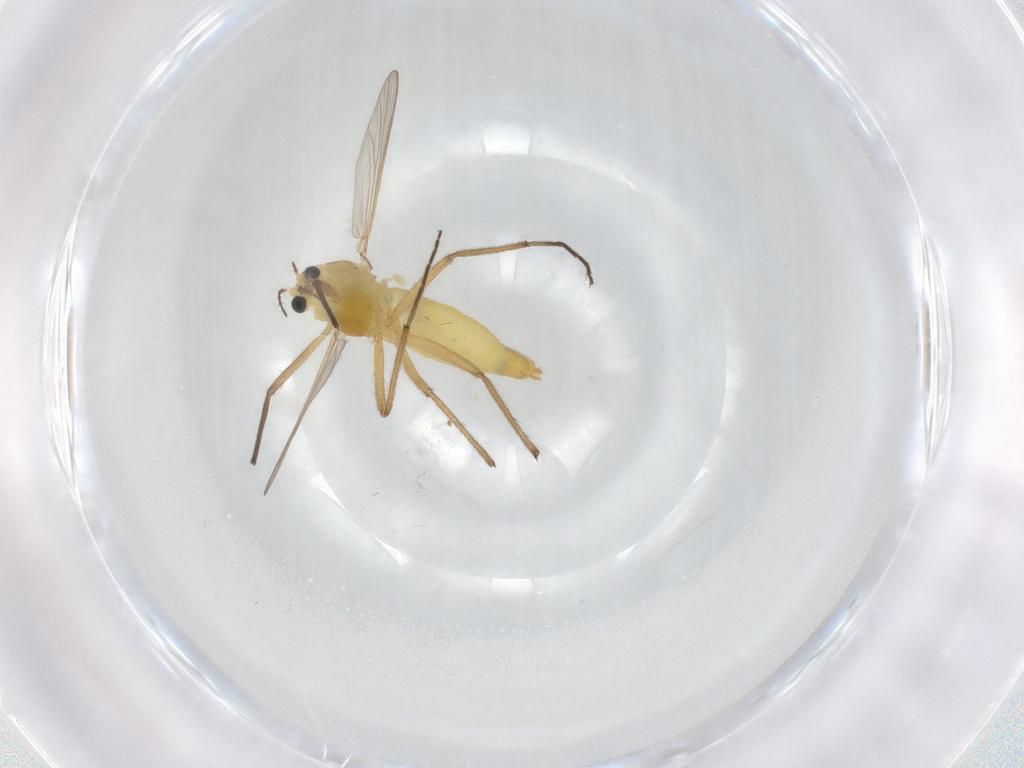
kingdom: Animalia
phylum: Arthropoda
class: Insecta
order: Diptera
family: Chironomidae
